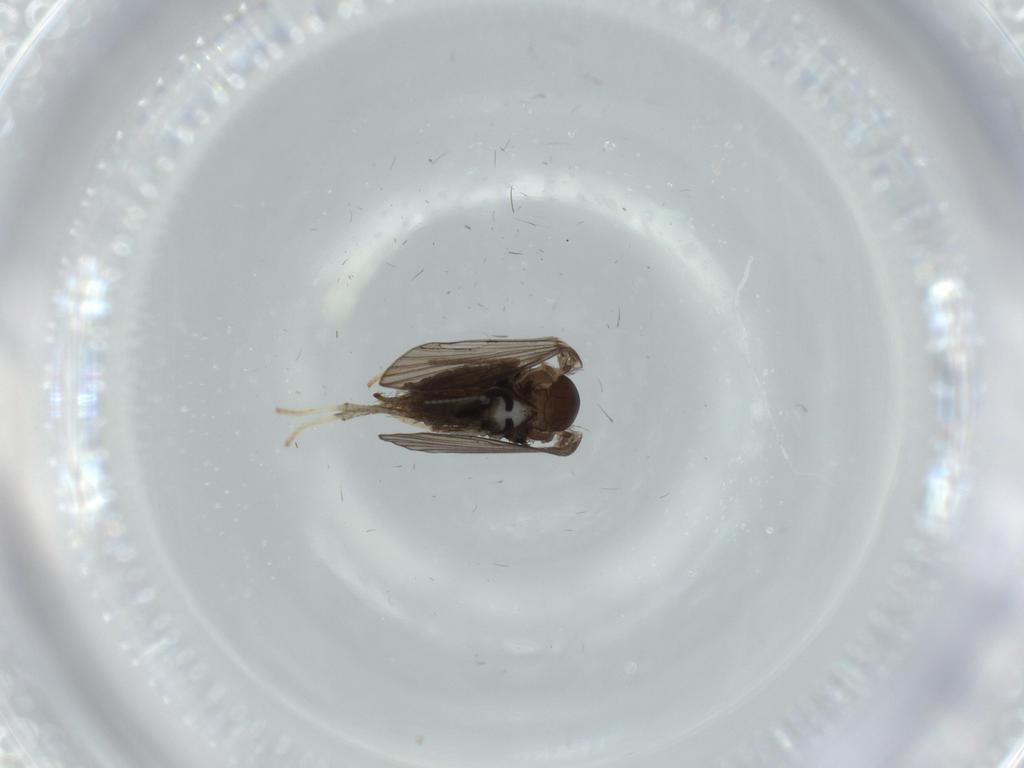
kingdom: Animalia
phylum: Arthropoda
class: Insecta
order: Diptera
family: Psychodidae
